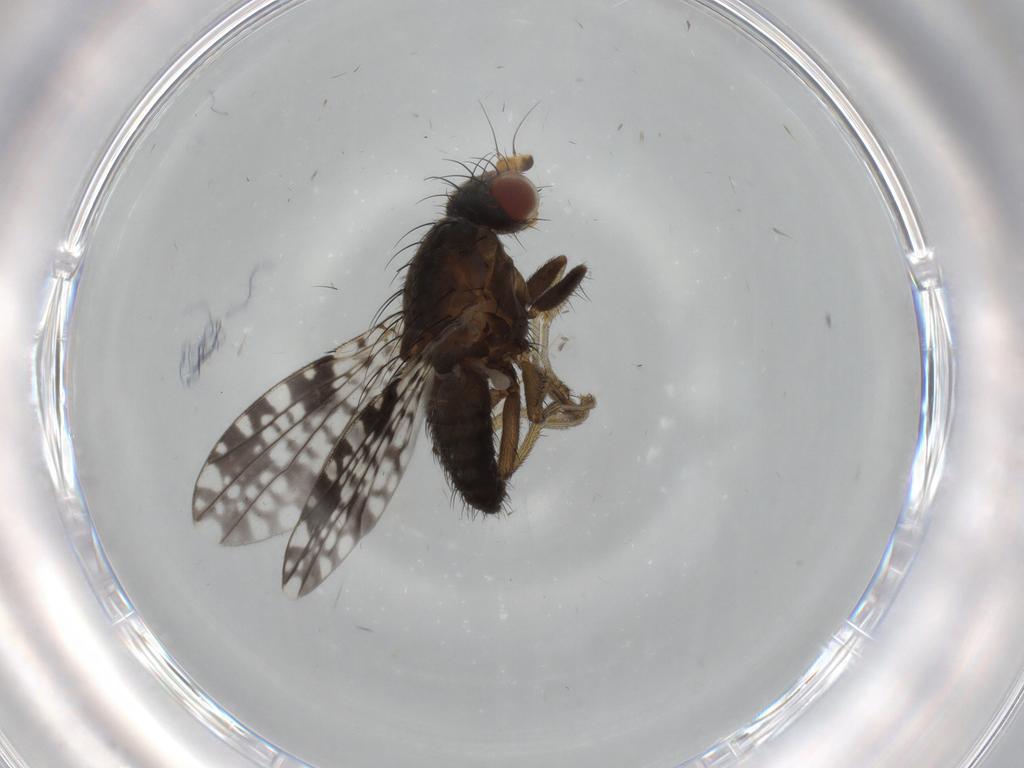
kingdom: Animalia
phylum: Arthropoda
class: Insecta
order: Diptera
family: Tephritidae
